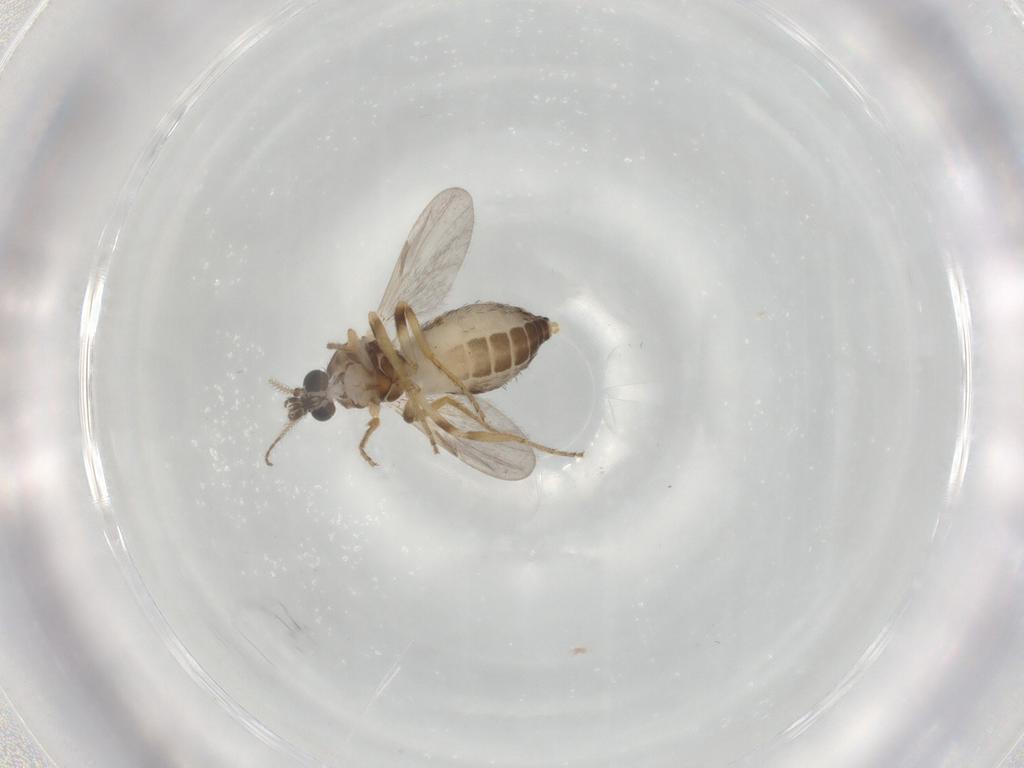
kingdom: Animalia
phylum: Arthropoda
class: Insecta
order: Diptera
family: Ceratopogonidae
